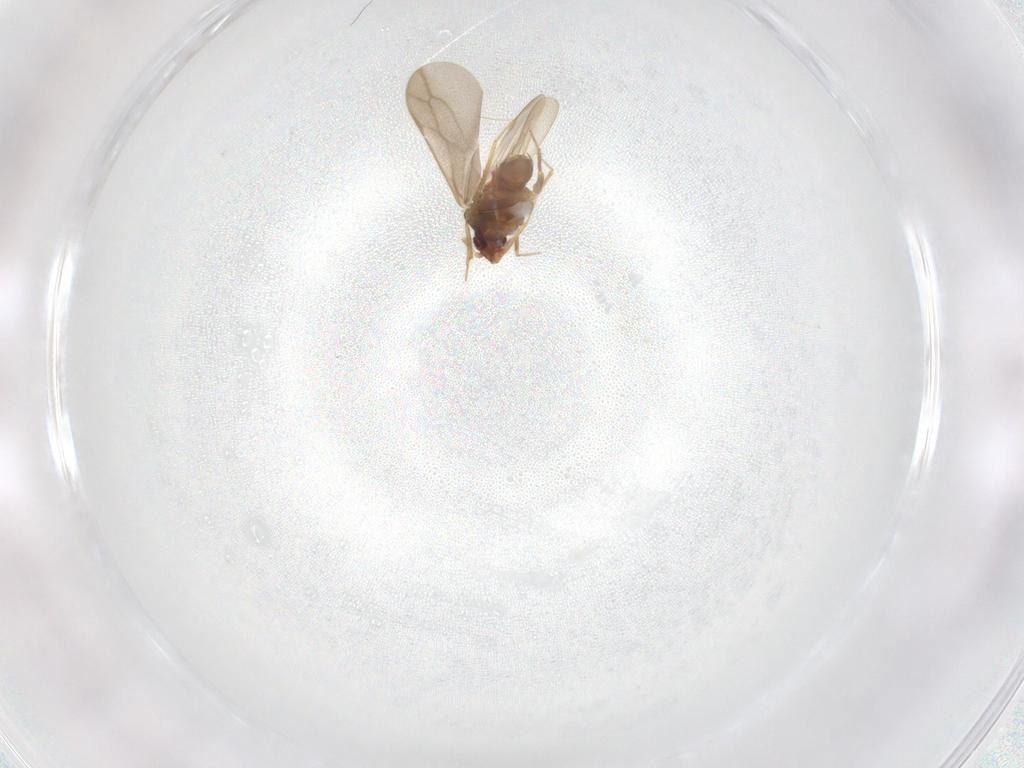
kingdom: Animalia
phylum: Arthropoda
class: Insecta
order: Hemiptera
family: Ceratocombidae
